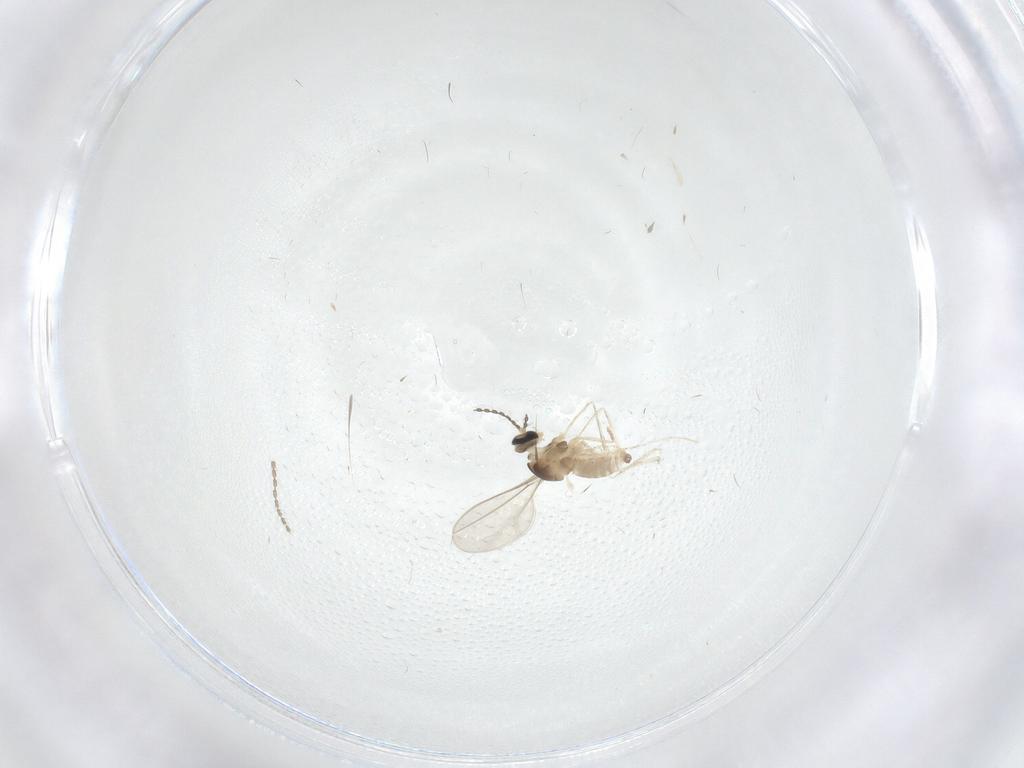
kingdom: Animalia
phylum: Arthropoda
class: Insecta
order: Diptera
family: Cecidomyiidae
